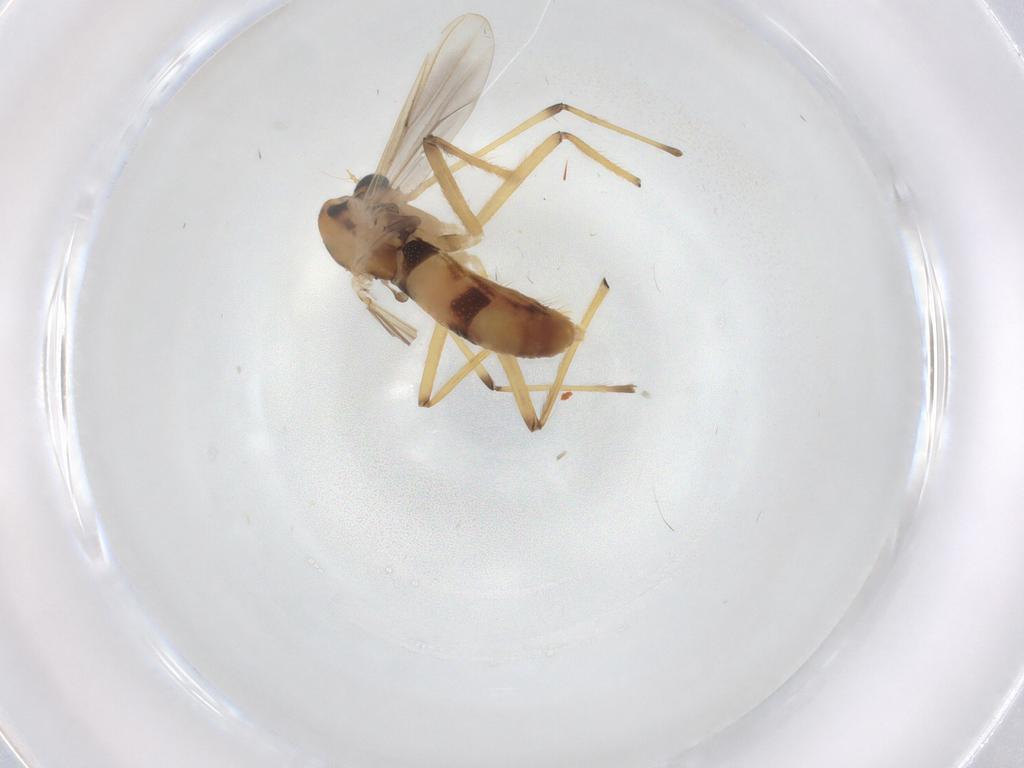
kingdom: Animalia
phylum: Arthropoda
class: Insecta
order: Diptera
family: Chironomidae
